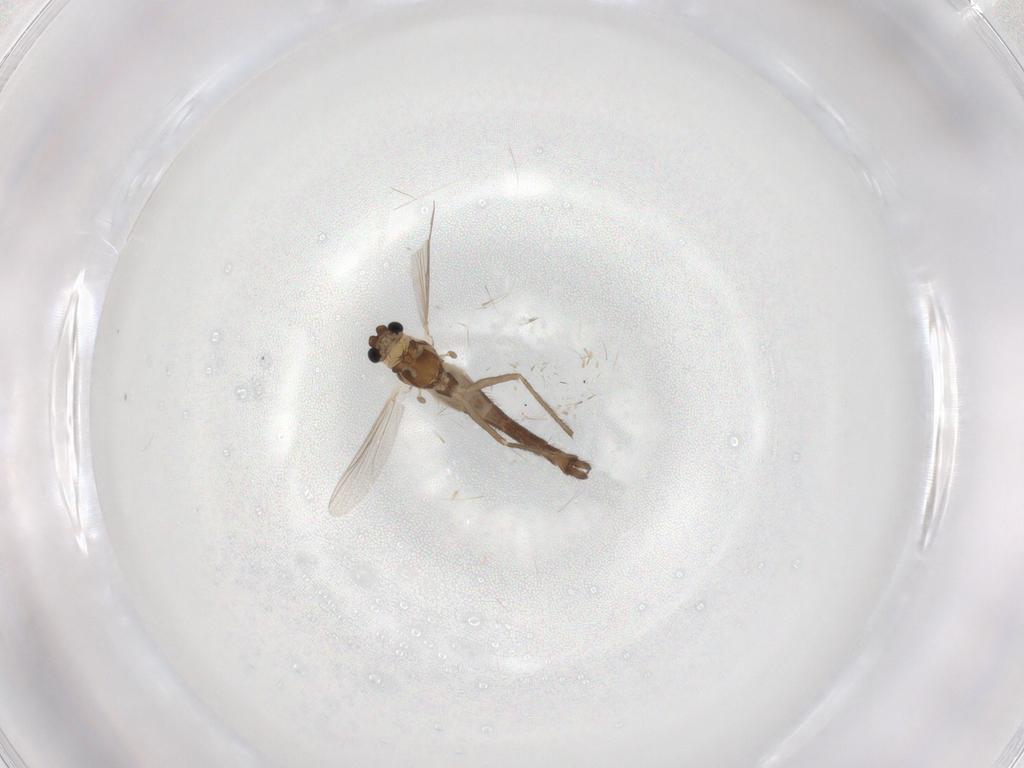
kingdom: Animalia
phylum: Arthropoda
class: Insecta
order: Diptera
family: Chironomidae
